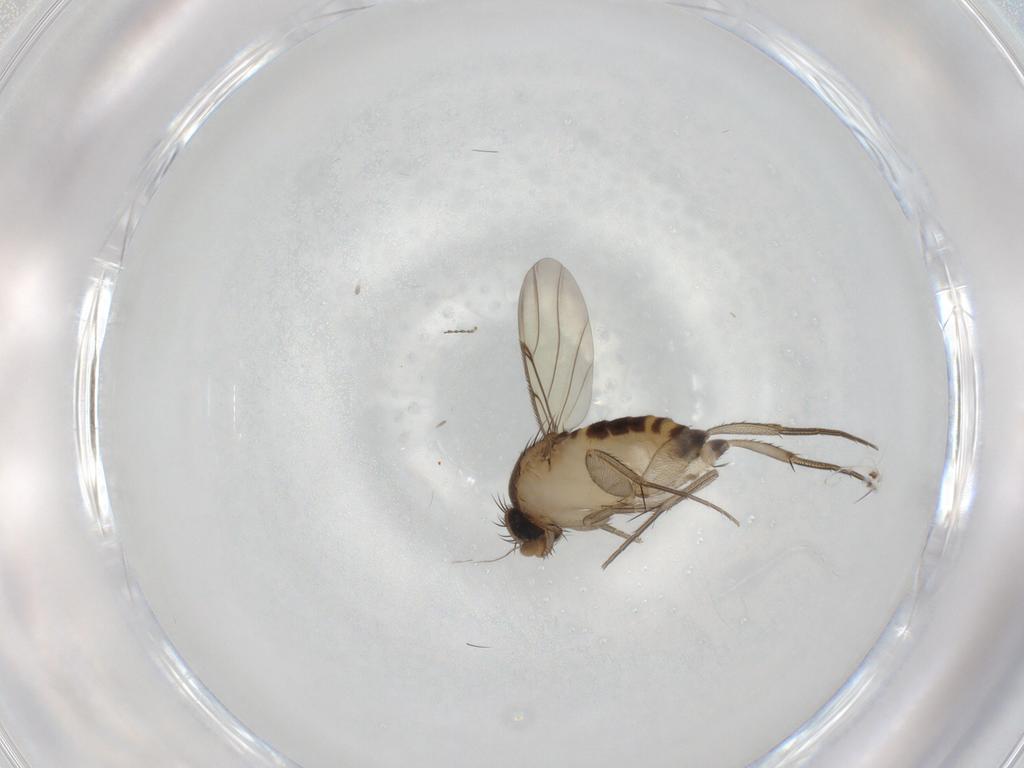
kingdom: Animalia
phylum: Arthropoda
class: Insecta
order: Diptera
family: Phoridae
